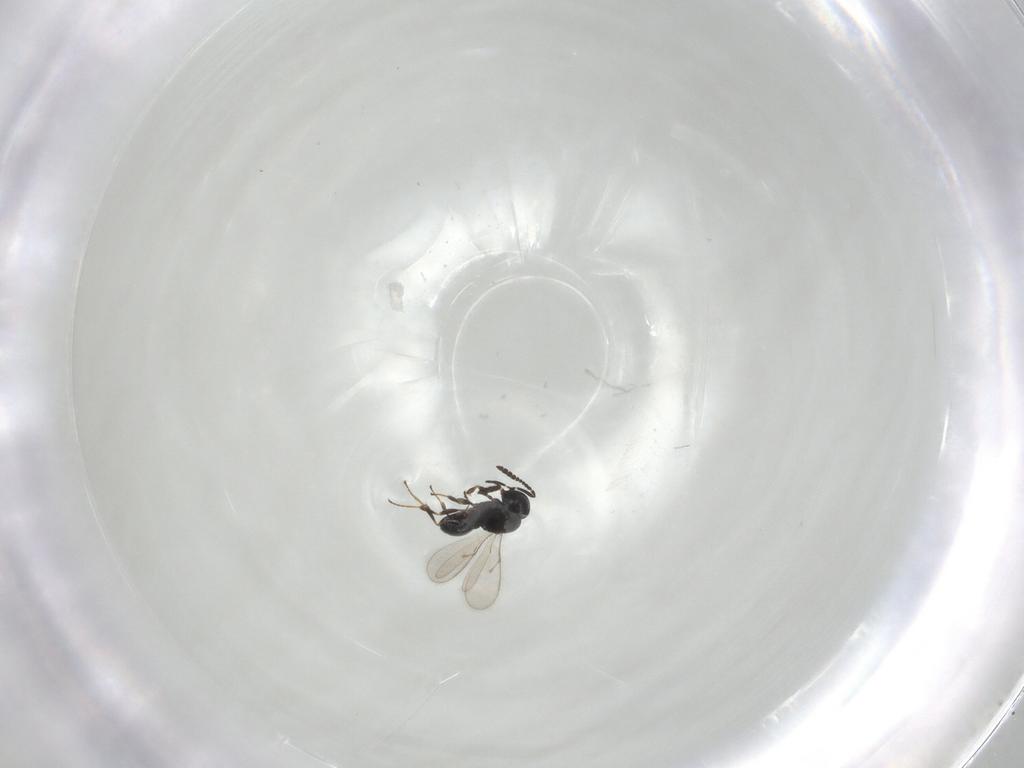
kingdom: Animalia
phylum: Arthropoda
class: Insecta
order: Hymenoptera
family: Scelionidae
